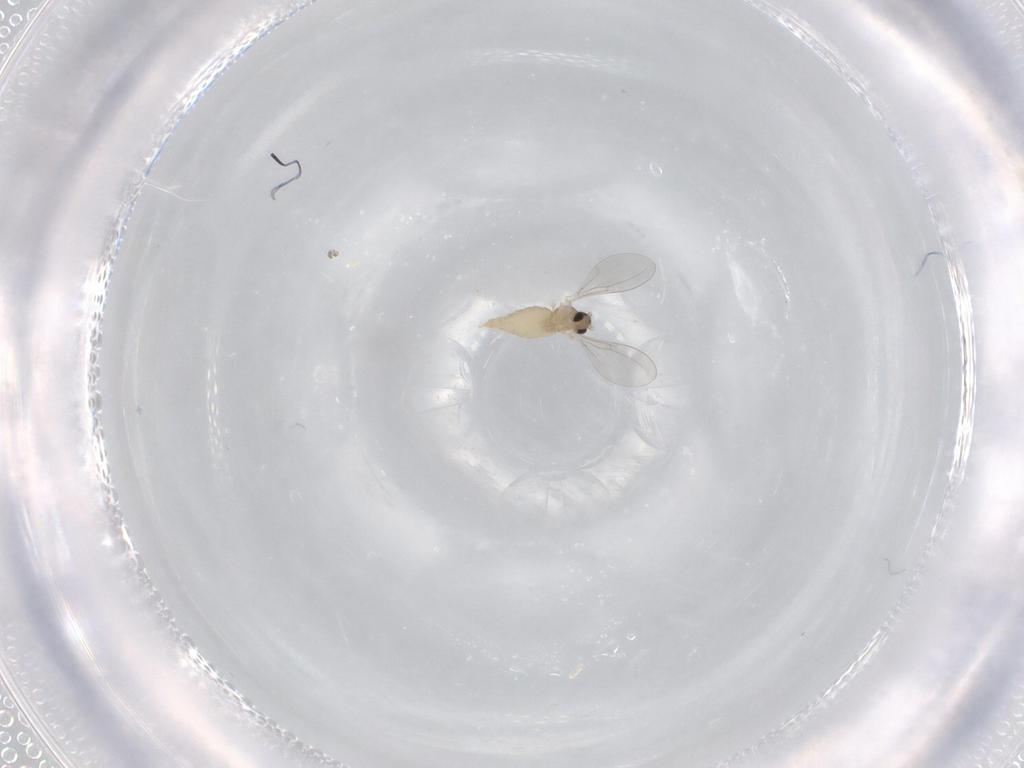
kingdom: Animalia
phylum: Arthropoda
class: Insecta
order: Diptera
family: Cecidomyiidae
